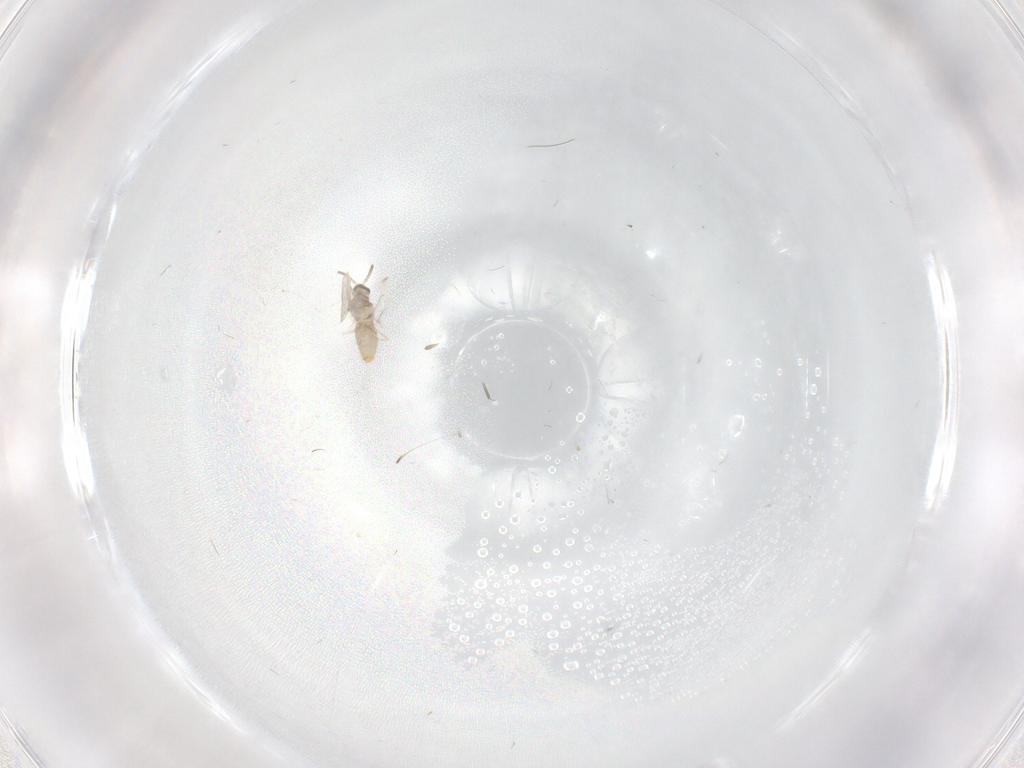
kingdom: Animalia
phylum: Arthropoda
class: Insecta
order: Diptera
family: Cecidomyiidae
